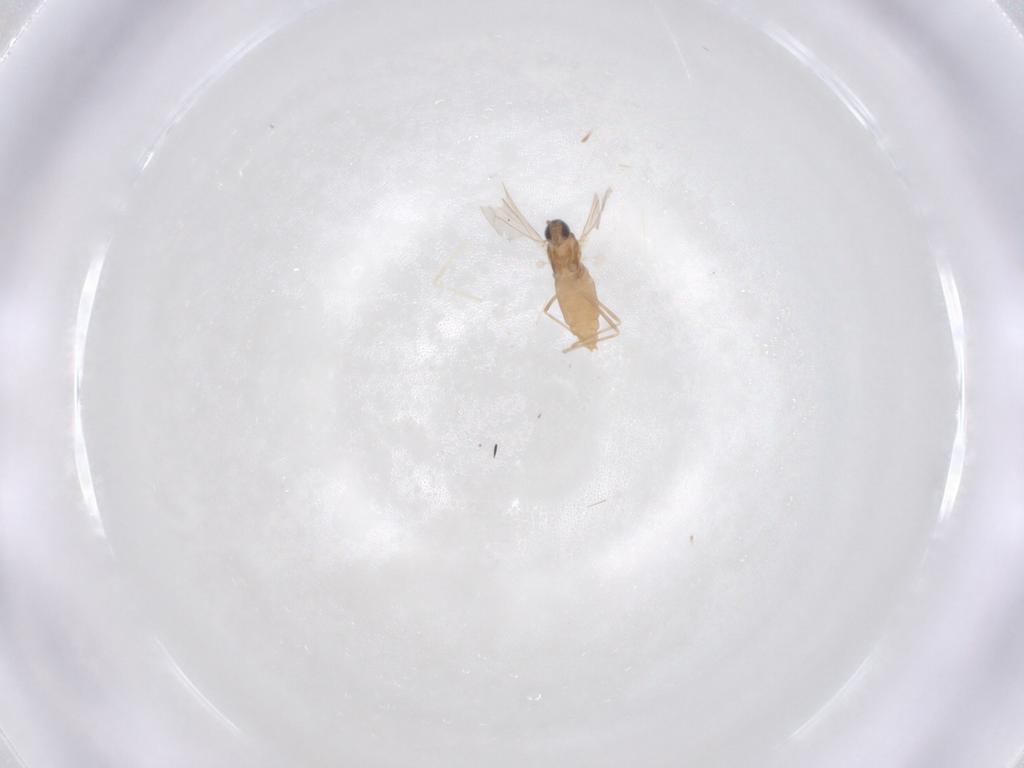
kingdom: Animalia
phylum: Arthropoda
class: Insecta
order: Diptera
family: Cecidomyiidae
